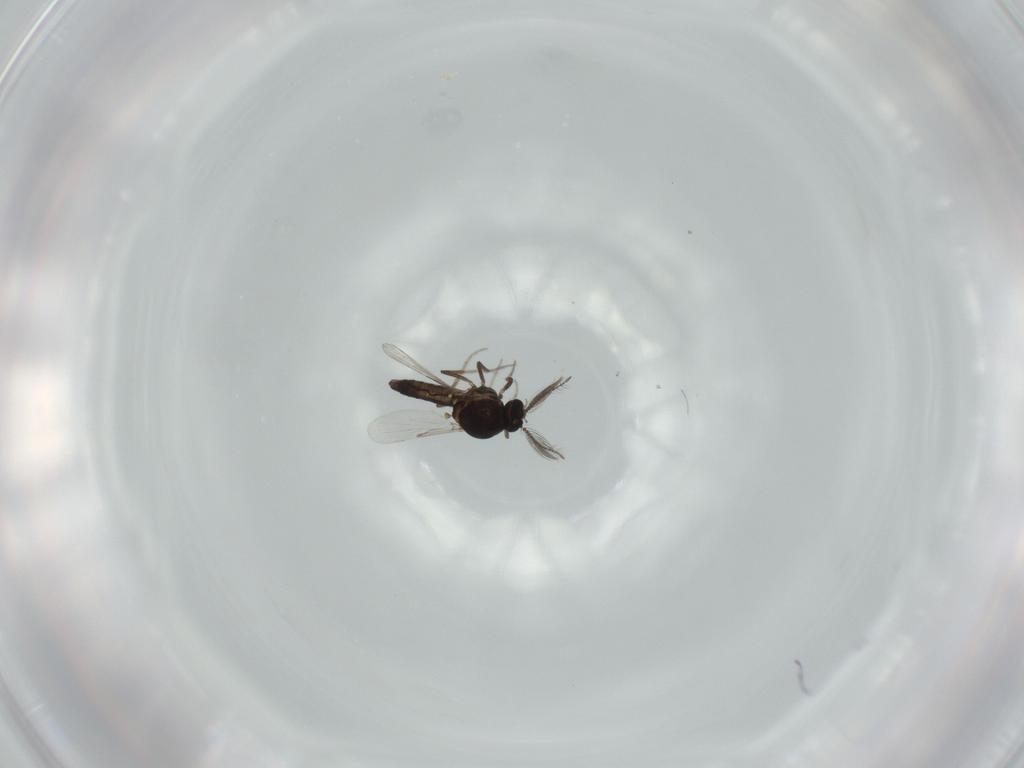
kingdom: Animalia
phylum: Arthropoda
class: Insecta
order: Diptera
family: Ceratopogonidae
